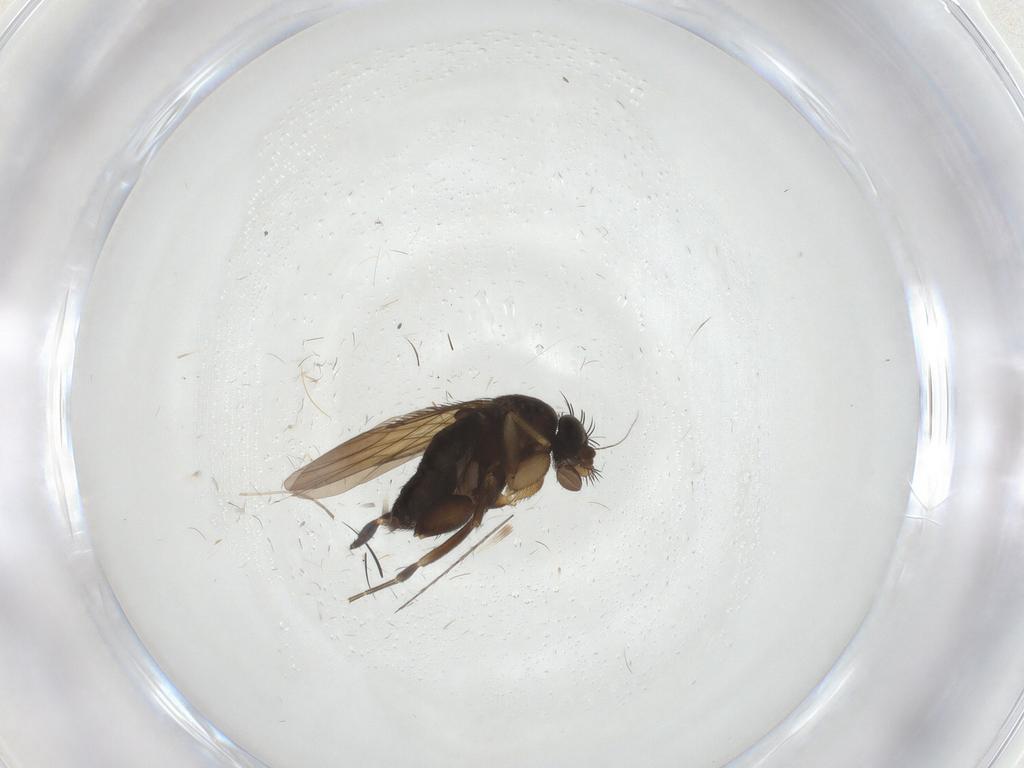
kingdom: Animalia
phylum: Arthropoda
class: Insecta
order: Diptera
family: Phoridae
